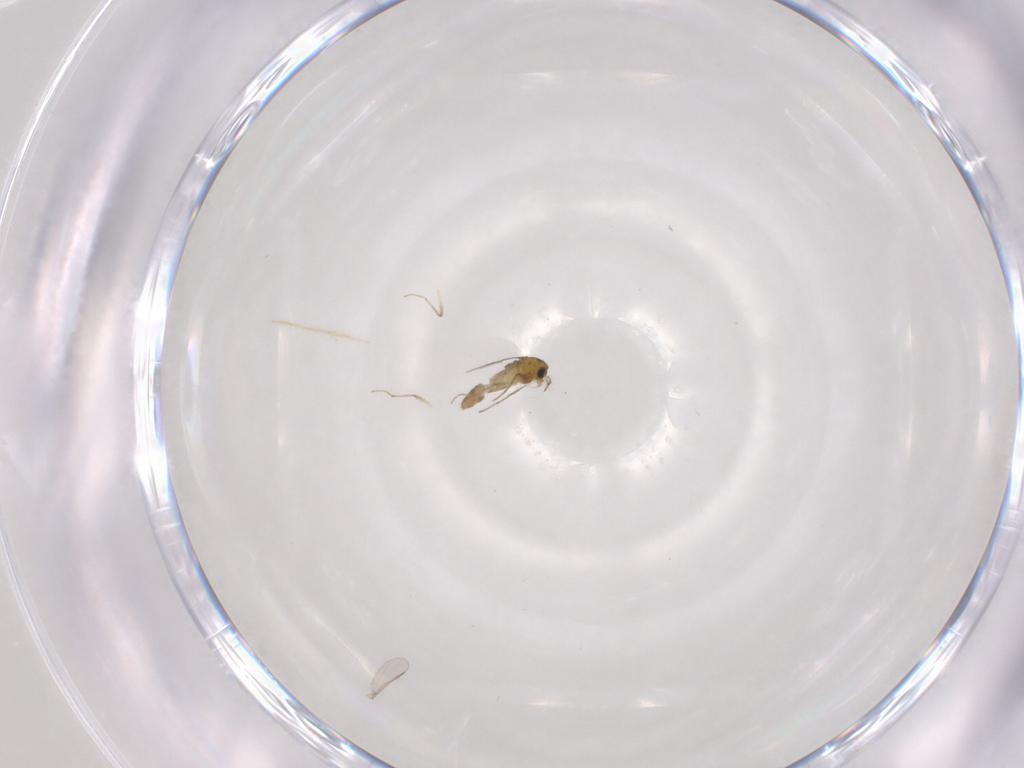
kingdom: Animalia
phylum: Arthropoda
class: Insecta
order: Diptera
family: Chironomidae
